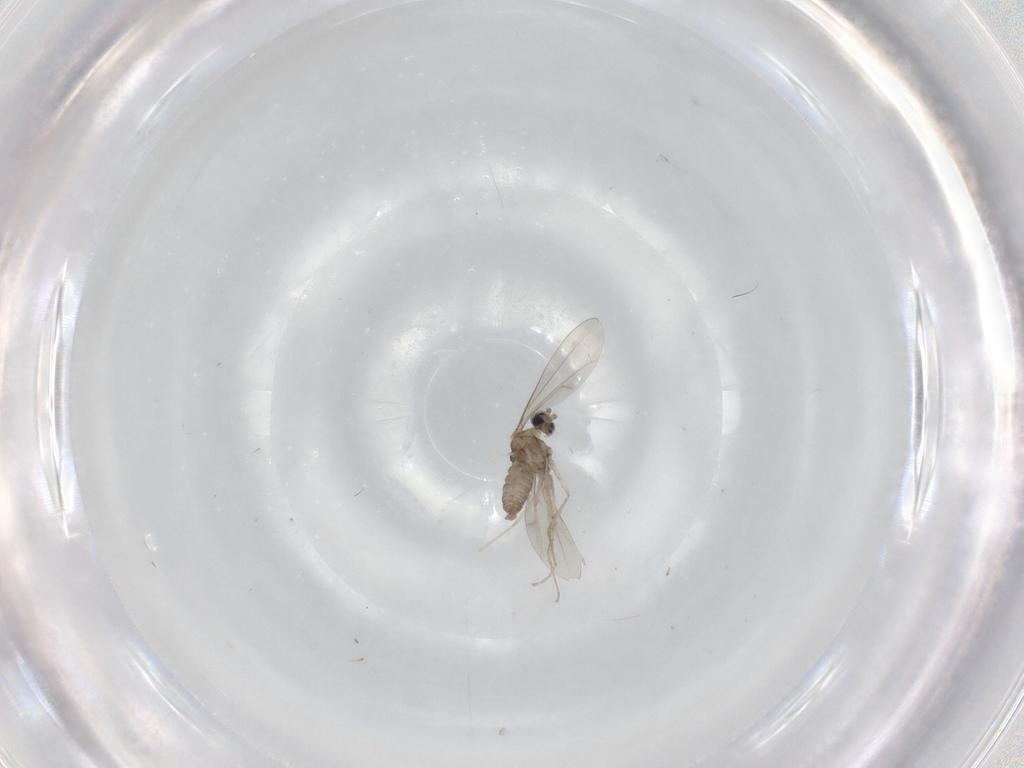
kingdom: Animalia
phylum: Arthropoda
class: Insecta
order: Diptera
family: Cecidomyiidae
